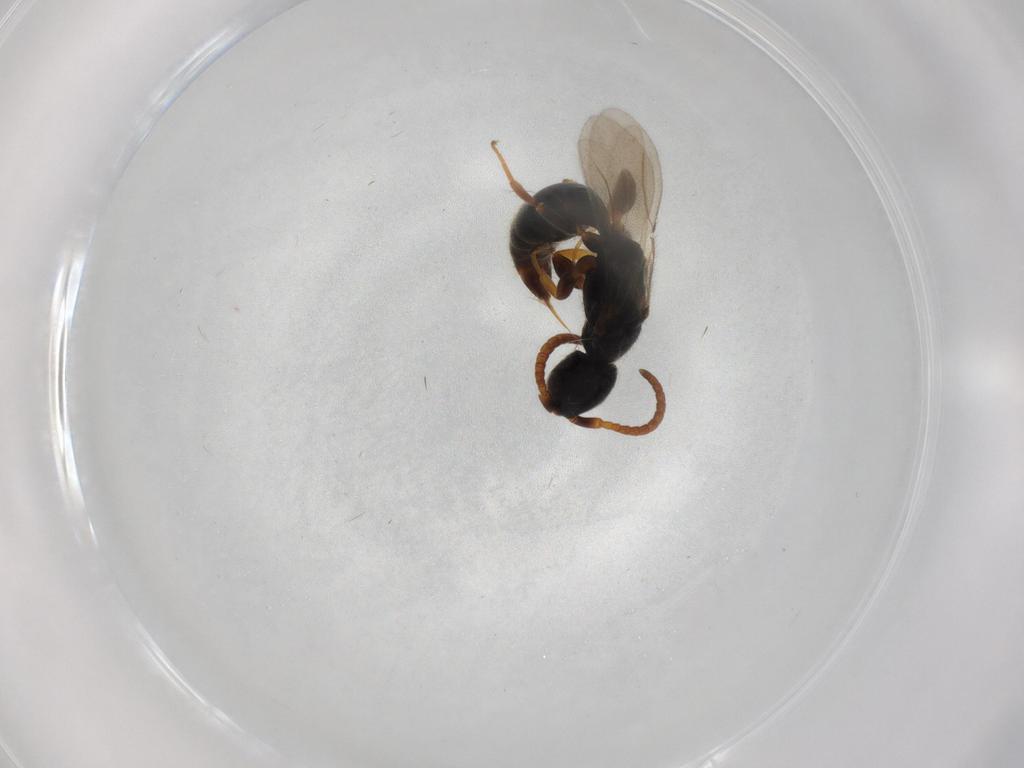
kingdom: Animalia
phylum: Arthropoda
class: Insecta
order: Hymenoptera
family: Bethylidae
